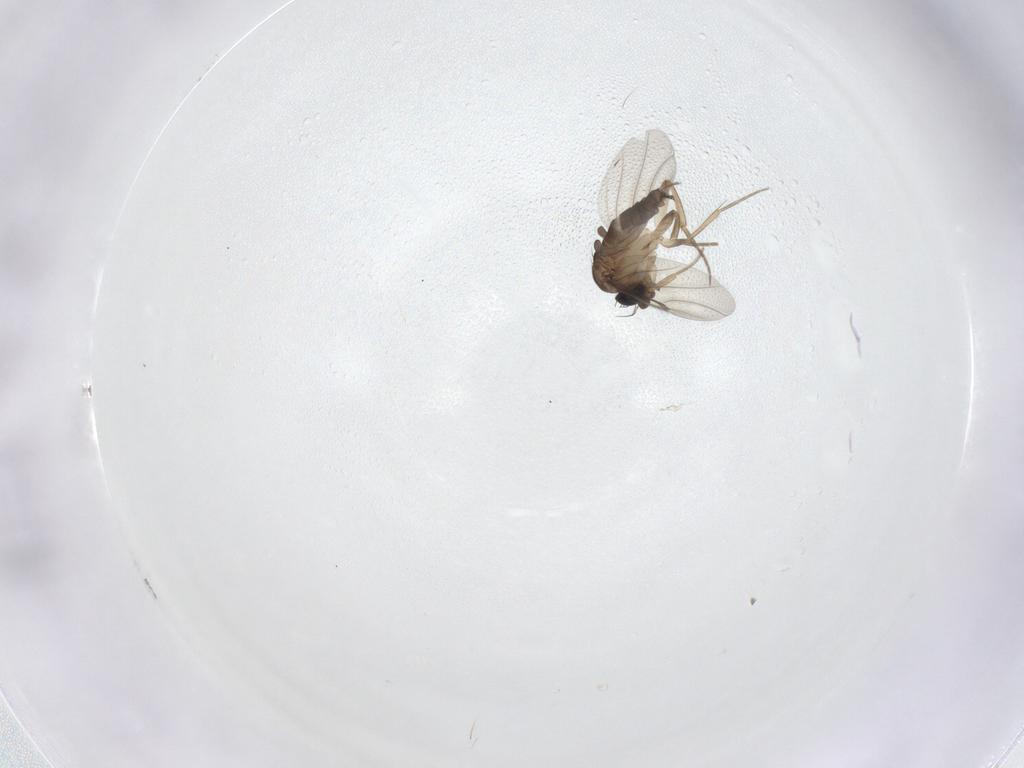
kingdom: Animalia
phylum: Arthropoda
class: Insecta
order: Diptera
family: Phoridae
